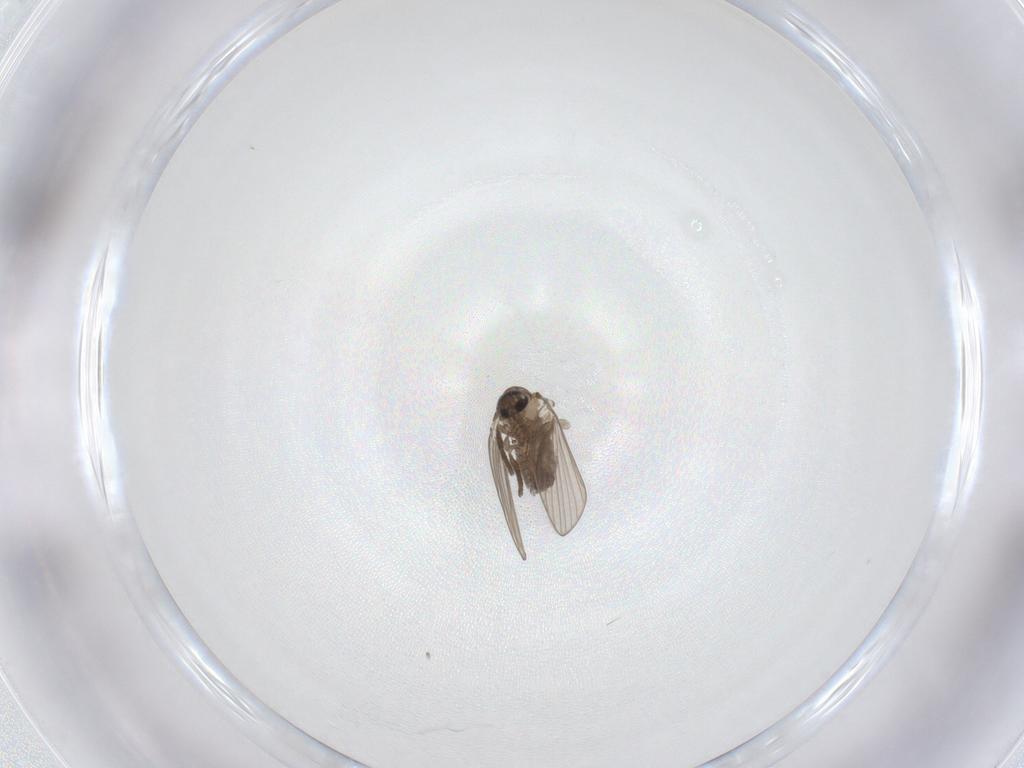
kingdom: Animalia
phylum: Arthropoda
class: Insecta
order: Diptera
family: Psychodidae
